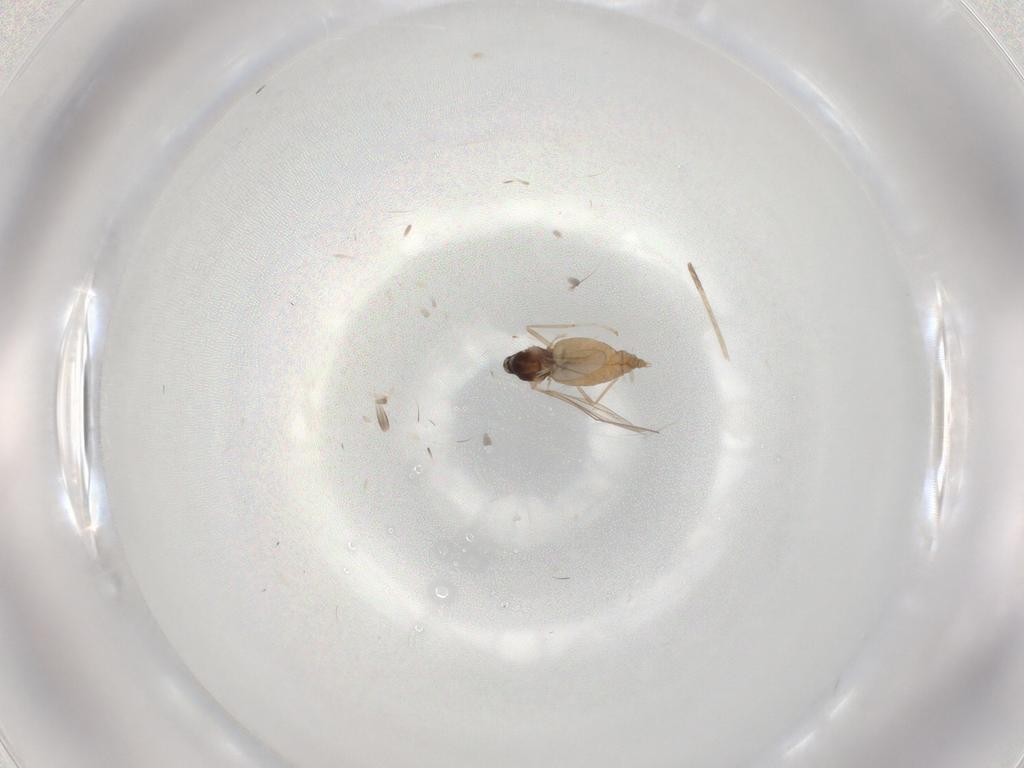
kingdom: Animalia
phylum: Arthropoda
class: Insecta
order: Diptera
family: Cecidomyiidae
